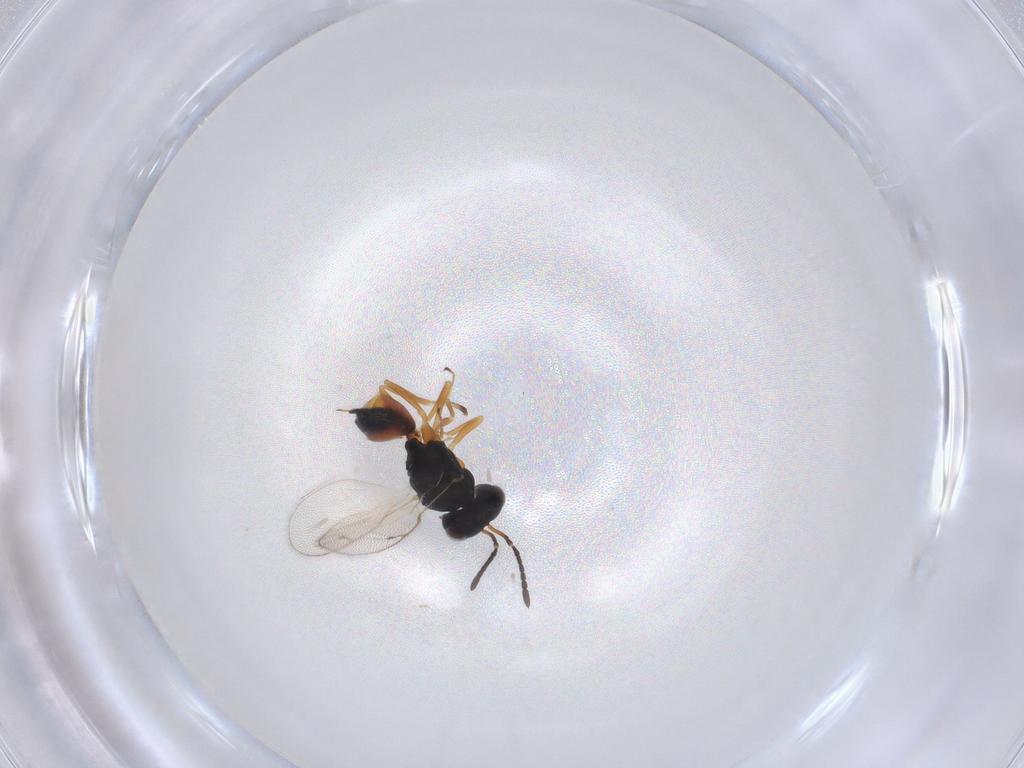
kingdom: Animalia
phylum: Arthropoda
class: Insecta
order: Hymenoptera
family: Pteromalidae
